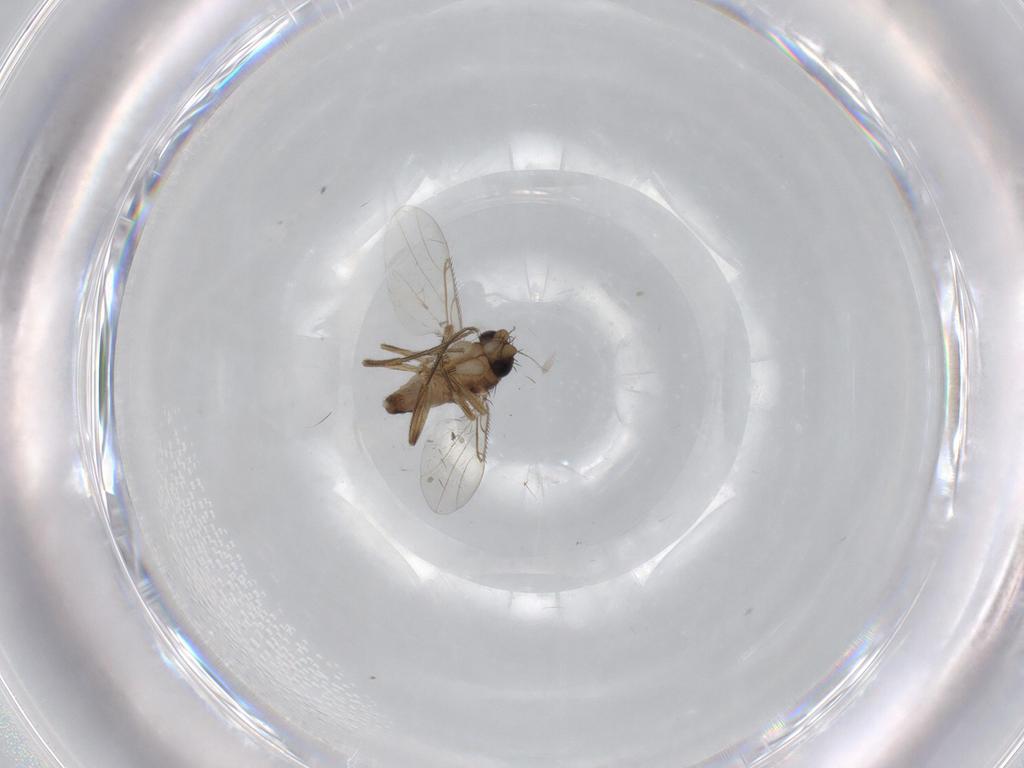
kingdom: Animalia
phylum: Arthropoda
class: Insecta
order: Diptera
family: Phoridae
